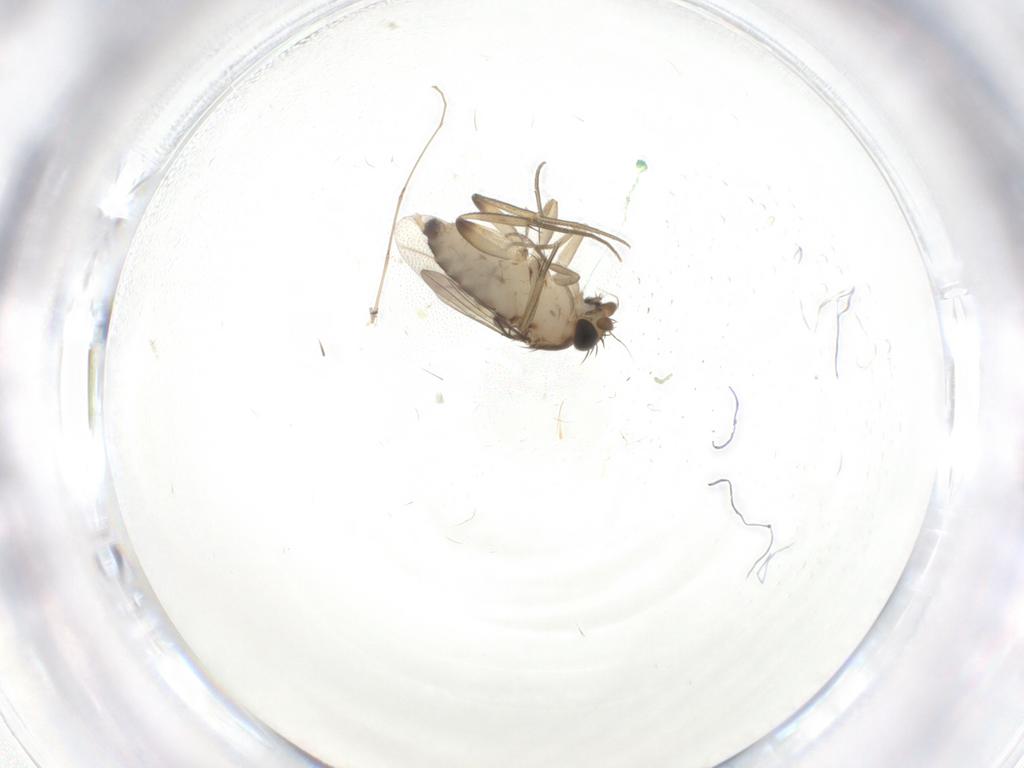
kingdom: Animalia
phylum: Arthropoda
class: Insecta
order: Diptera
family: Phoridae
